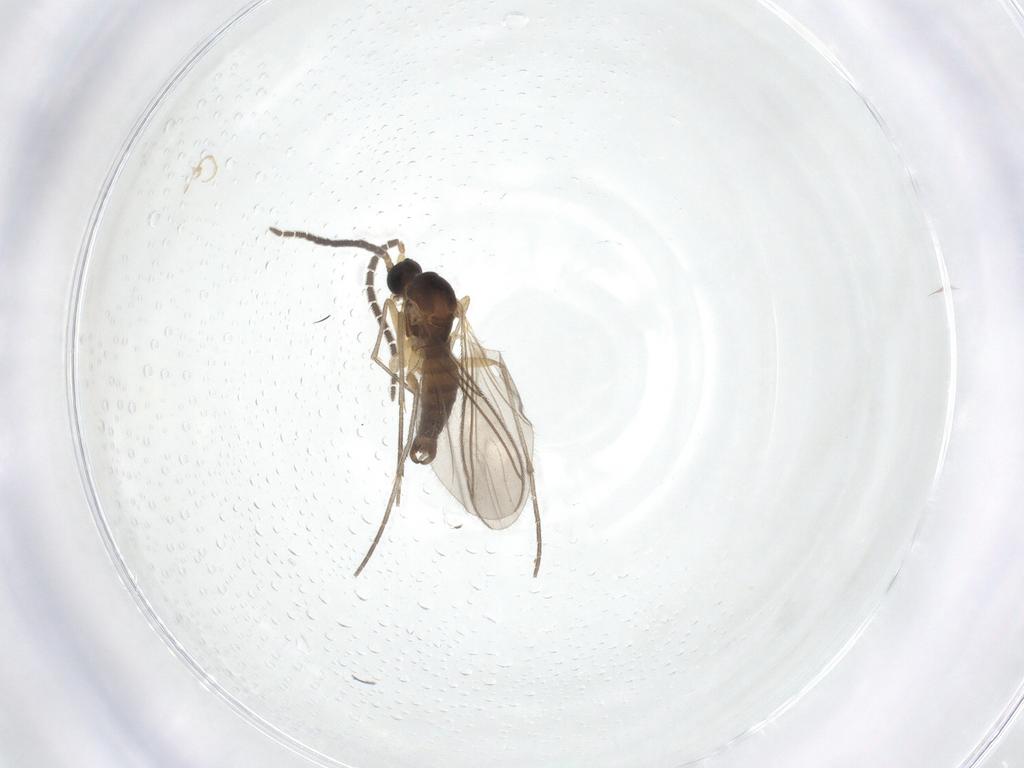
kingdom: Animalia
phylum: Arthropoda
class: Insecta
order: Diptera
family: Sciaridae
